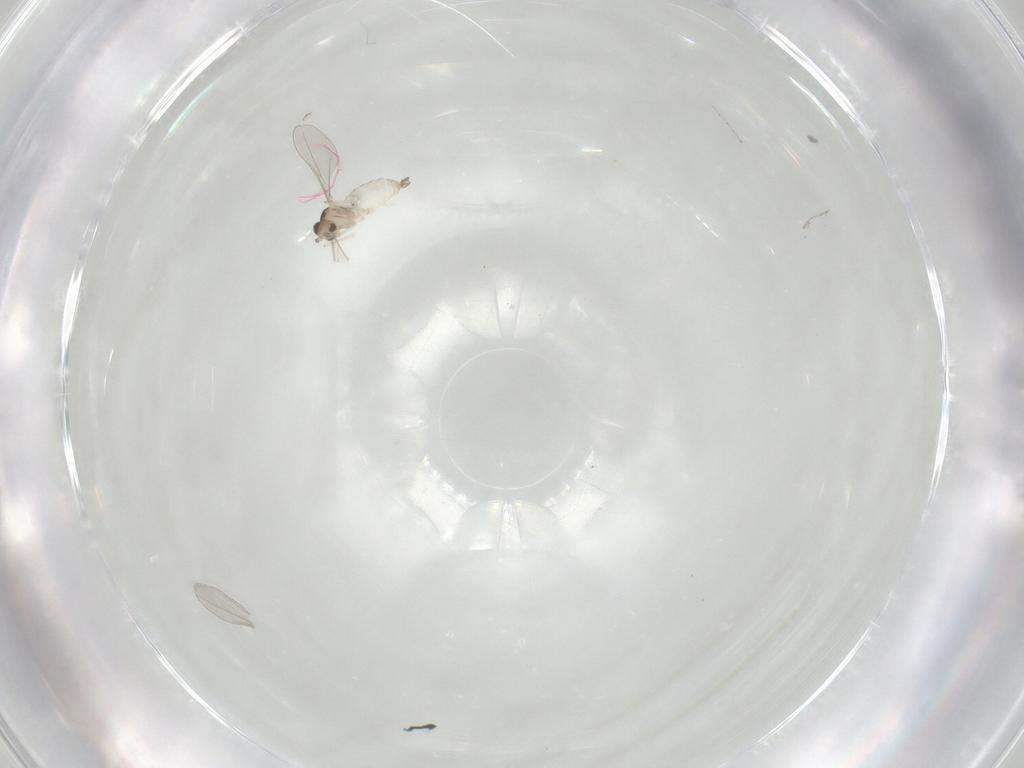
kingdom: Animalia
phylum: Arthropoda
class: Insecta
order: Diptera
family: Cecidomyiidae
